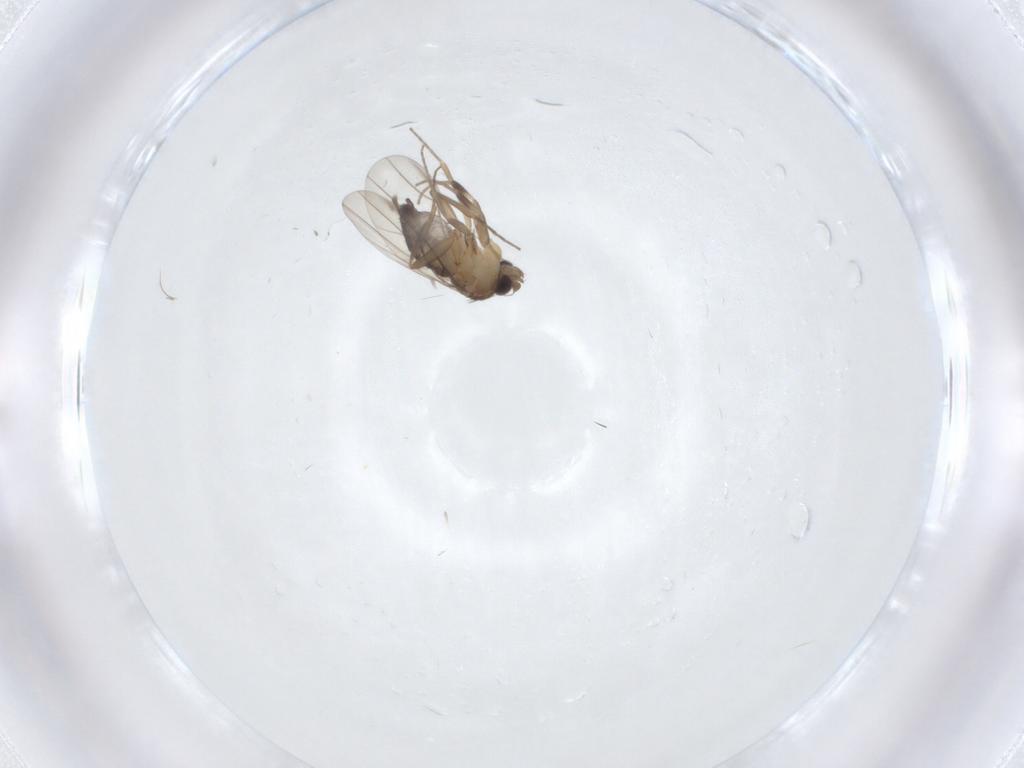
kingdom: Animalia
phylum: Arthropoda
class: Insecta
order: Diptera
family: Phoridae
